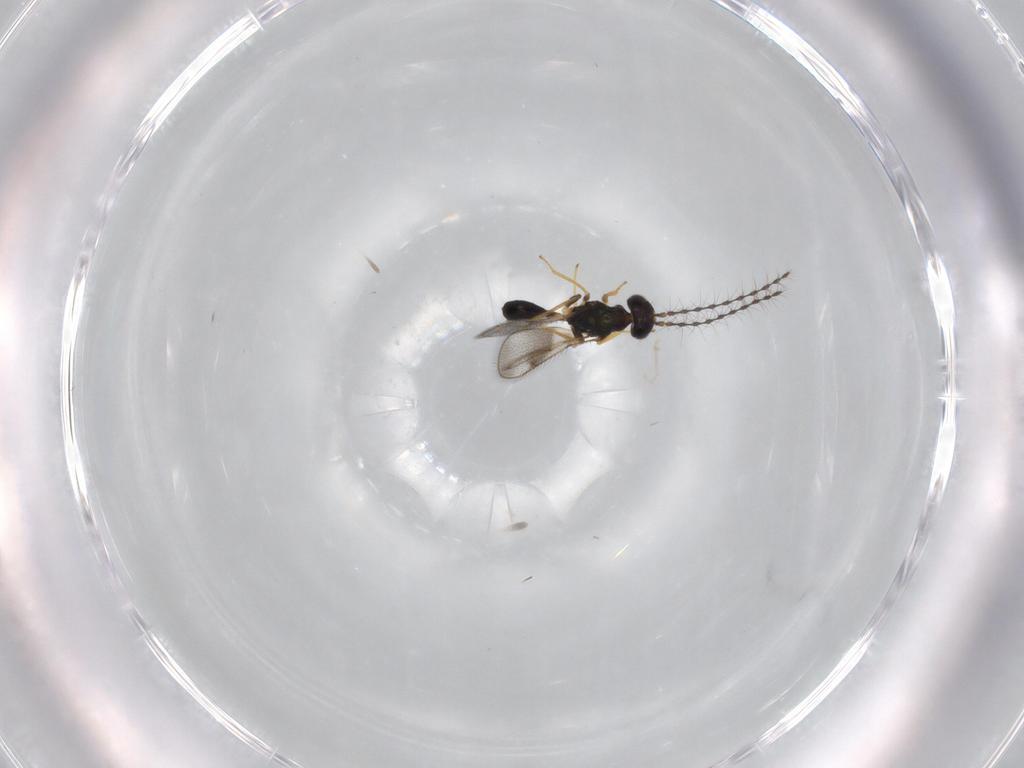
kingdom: Animalia
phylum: Arthropoda
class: Insecta
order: Hymenoptera
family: Diparidae
